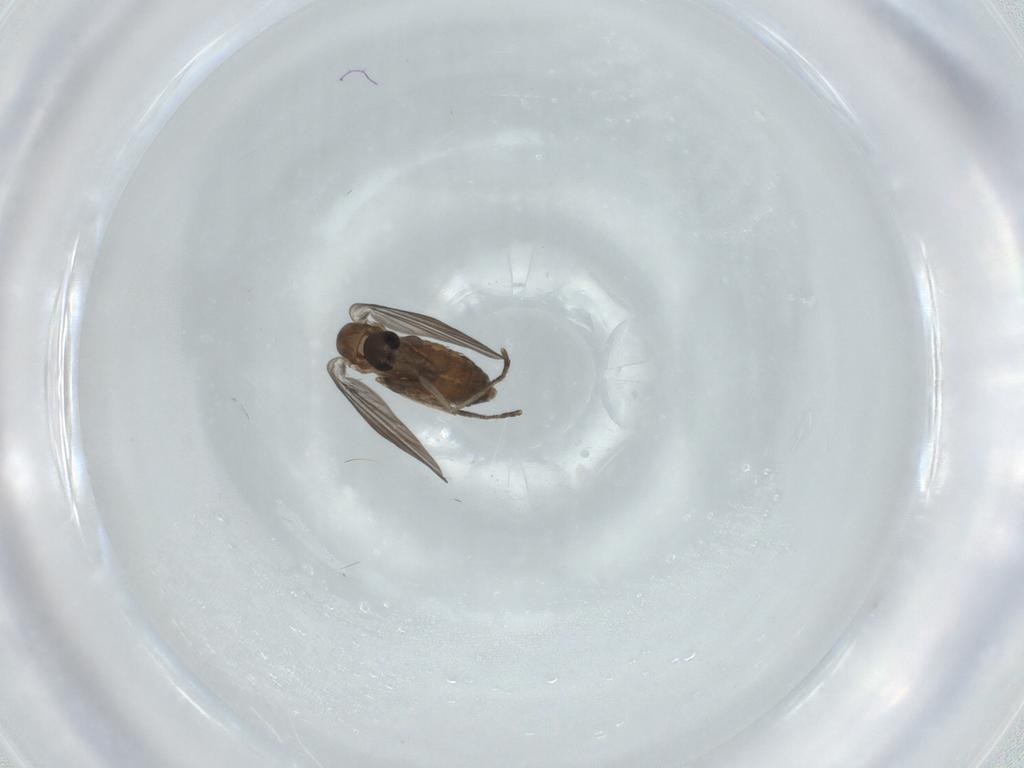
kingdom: Animalia
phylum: Arthropoda
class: Insecta
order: Diptera
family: Psychodidae
